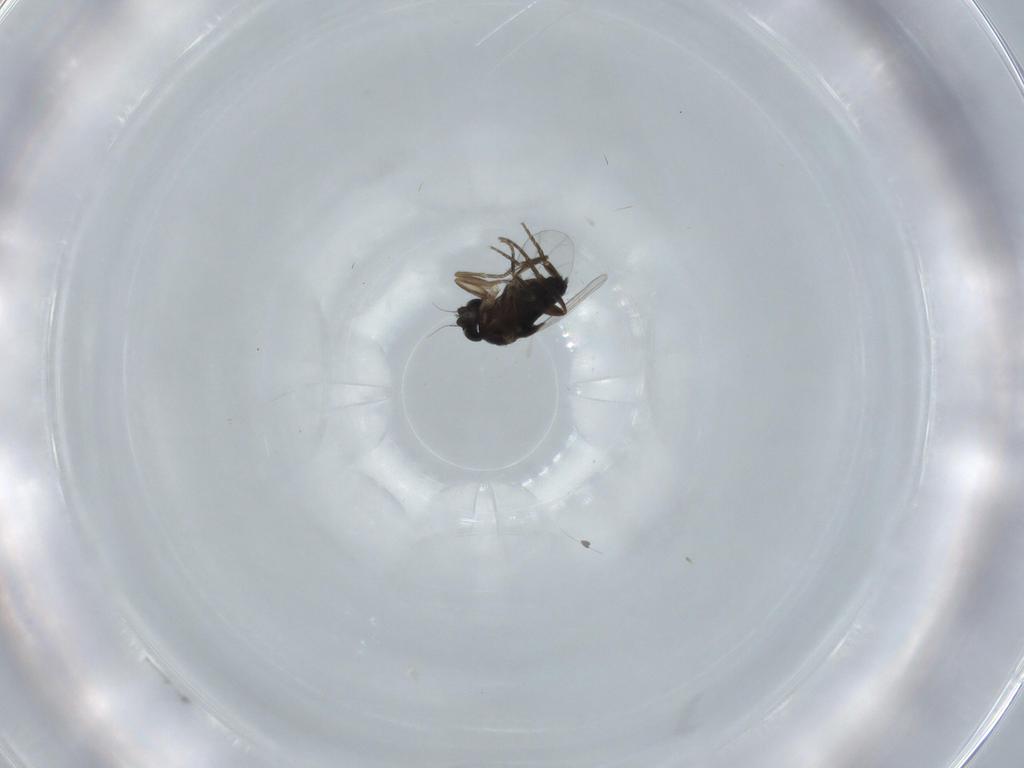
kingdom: Animalia
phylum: Arthropoda
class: Insecta
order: Diptera
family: Phoridae
